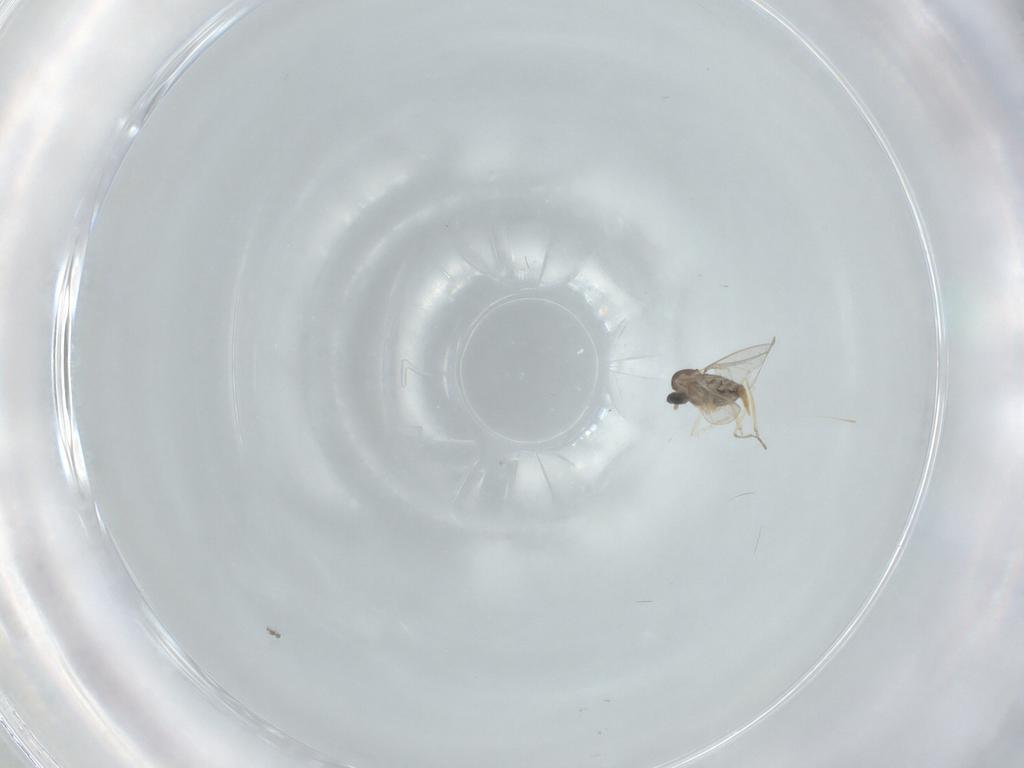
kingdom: Animalia
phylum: Arthropoda
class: Insecta
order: Diptera
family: Cecidomyiidae
